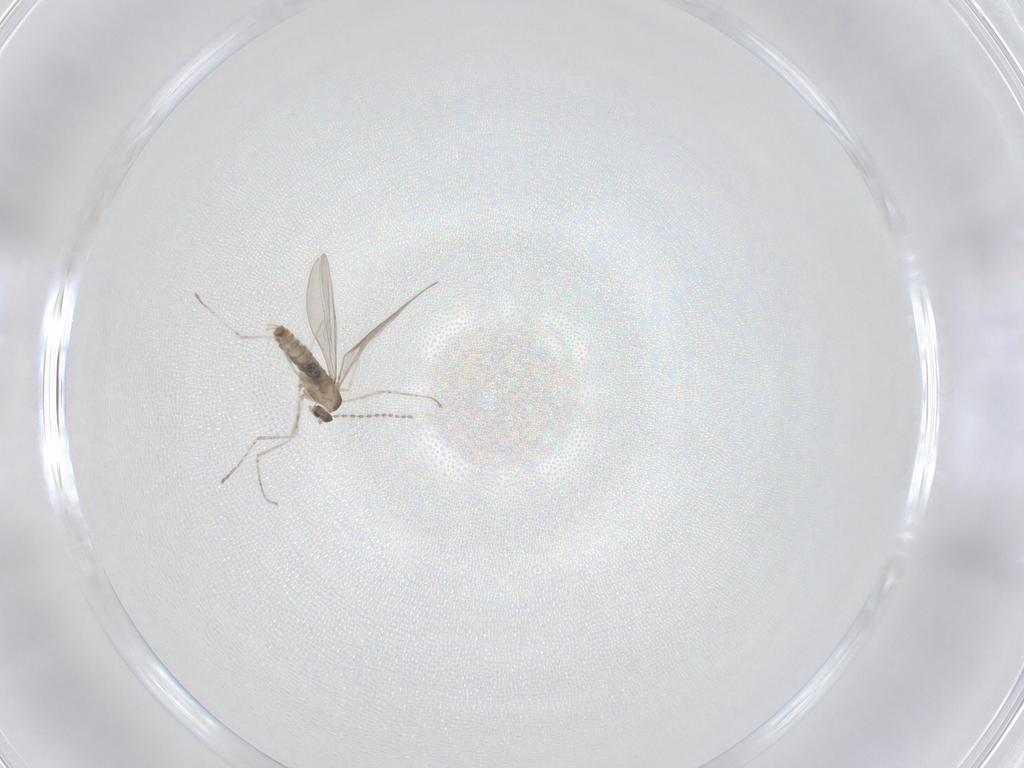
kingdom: Animalia
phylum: Arthropoda
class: Insecta
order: Diptera
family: Cecidomyiidae
